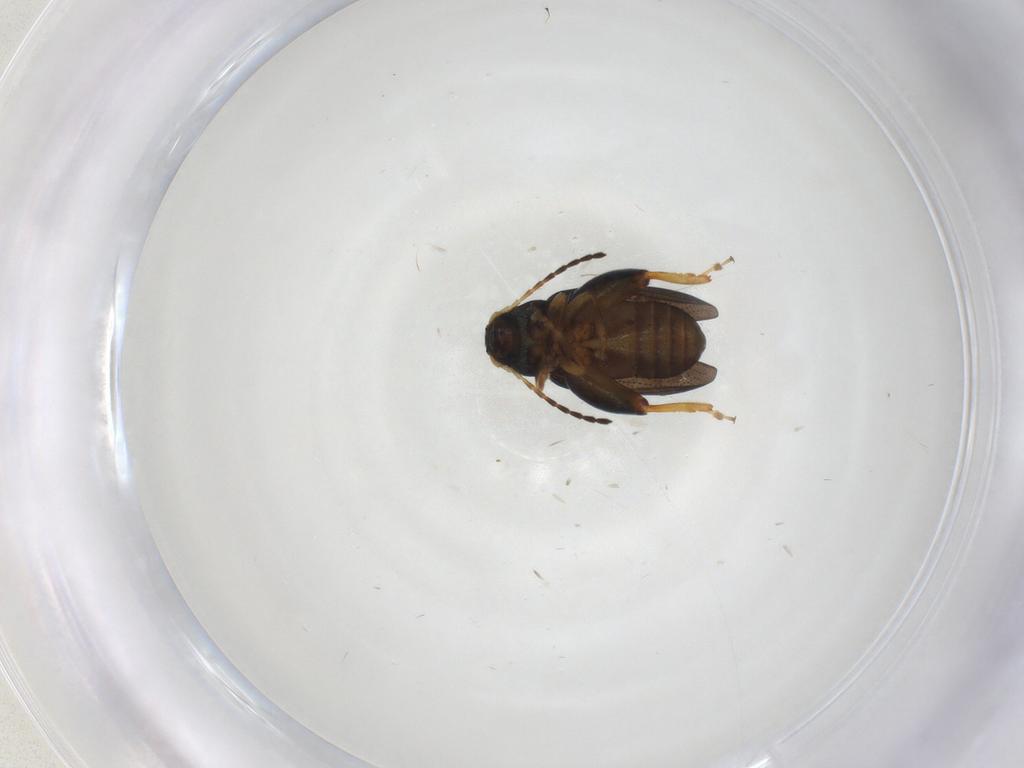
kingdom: Animalia
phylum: Arthropoda
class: Insecta
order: Coleoptera
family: Chrysomelidae
